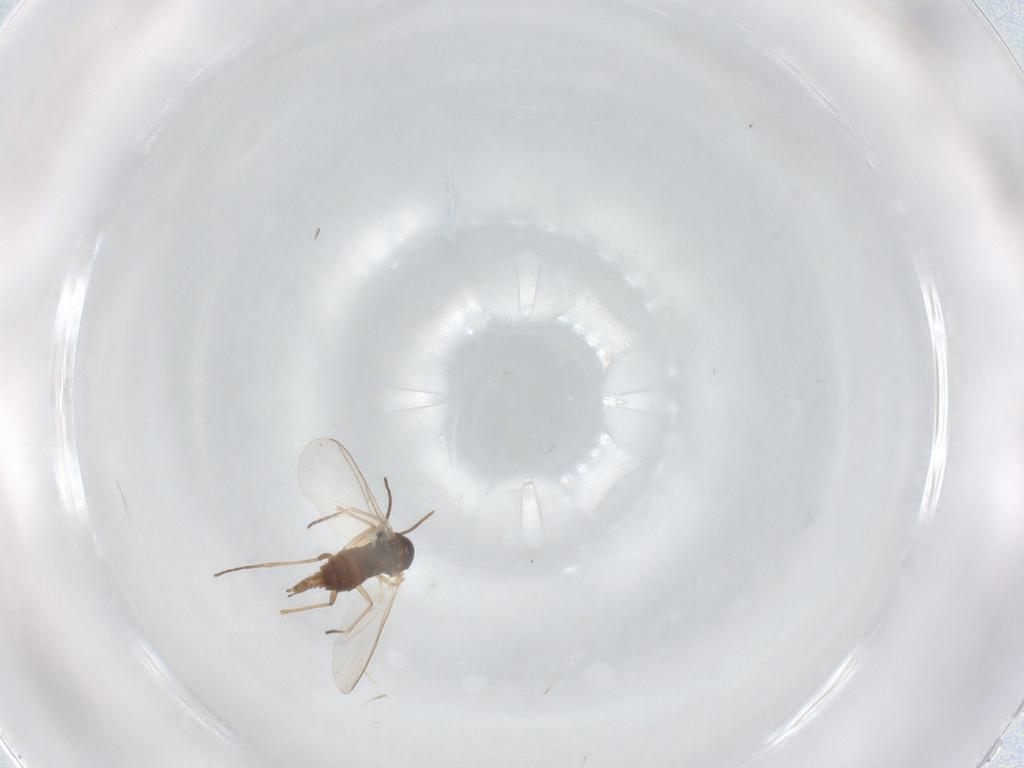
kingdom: Animalia
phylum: Arthropoda
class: Insecta
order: Diptera
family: Sciaridae
